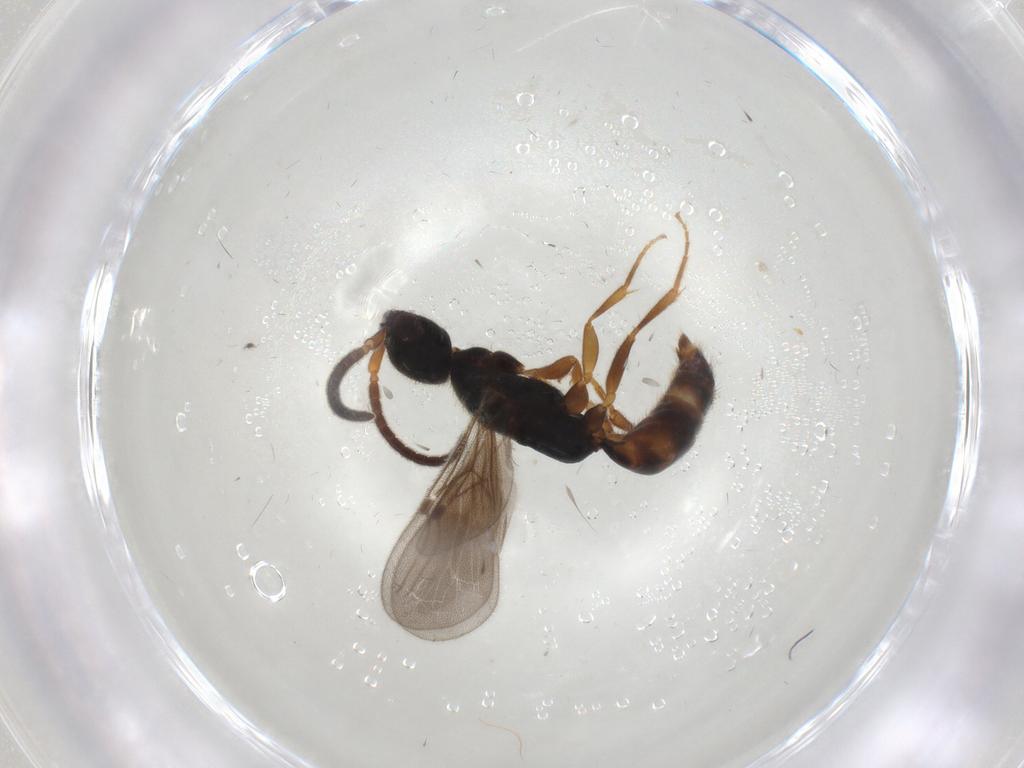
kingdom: Animalia
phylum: Arthropoda
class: Insecta
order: Hymenoptera
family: Bethylidae
